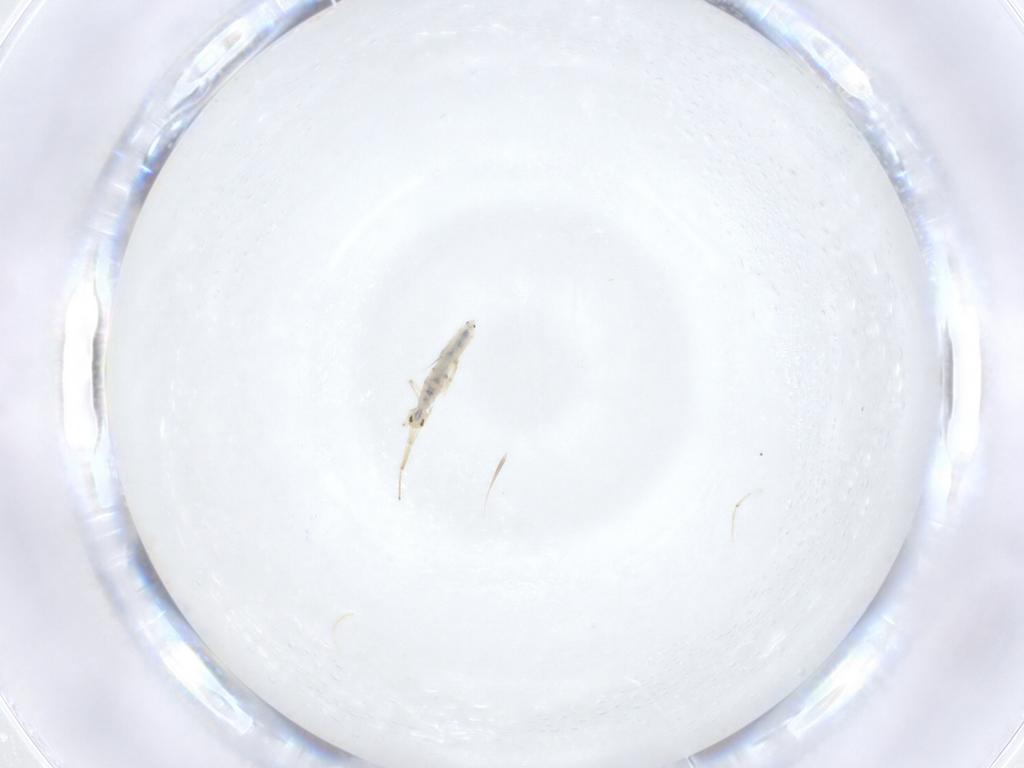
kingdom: Animalia
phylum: Arthropoda
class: Collembola
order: Entomobryomorpha
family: Entomobryidae
